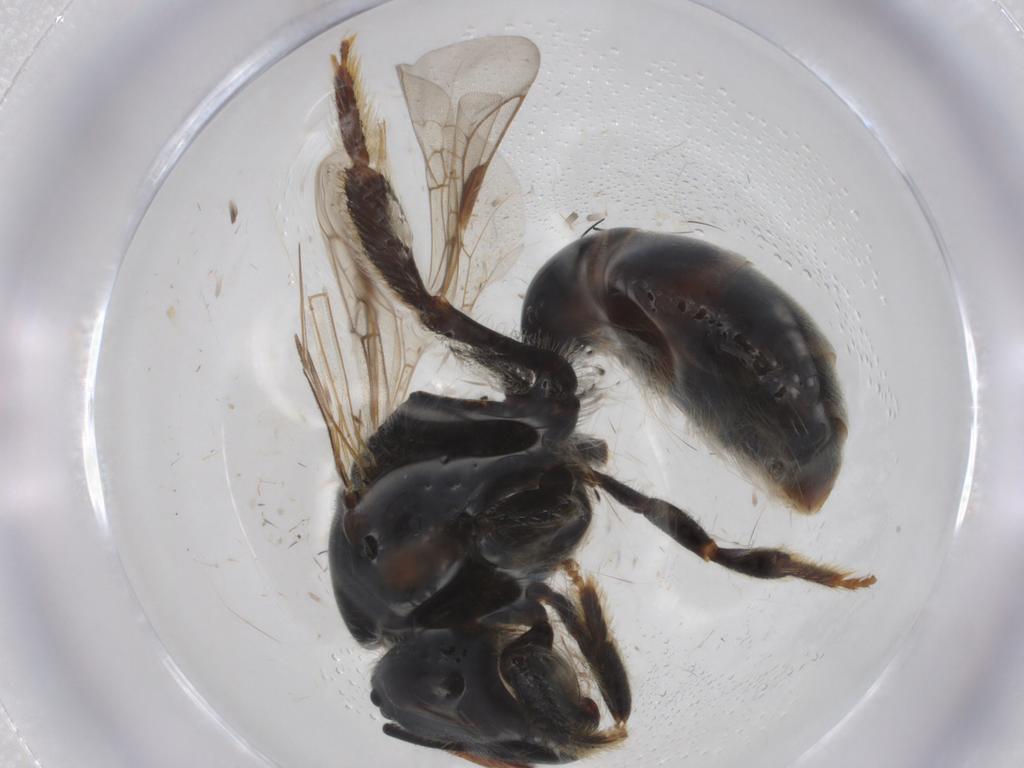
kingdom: Animalia
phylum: Arthropoda
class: Insecta
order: Hymenoptera
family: Halictidae
